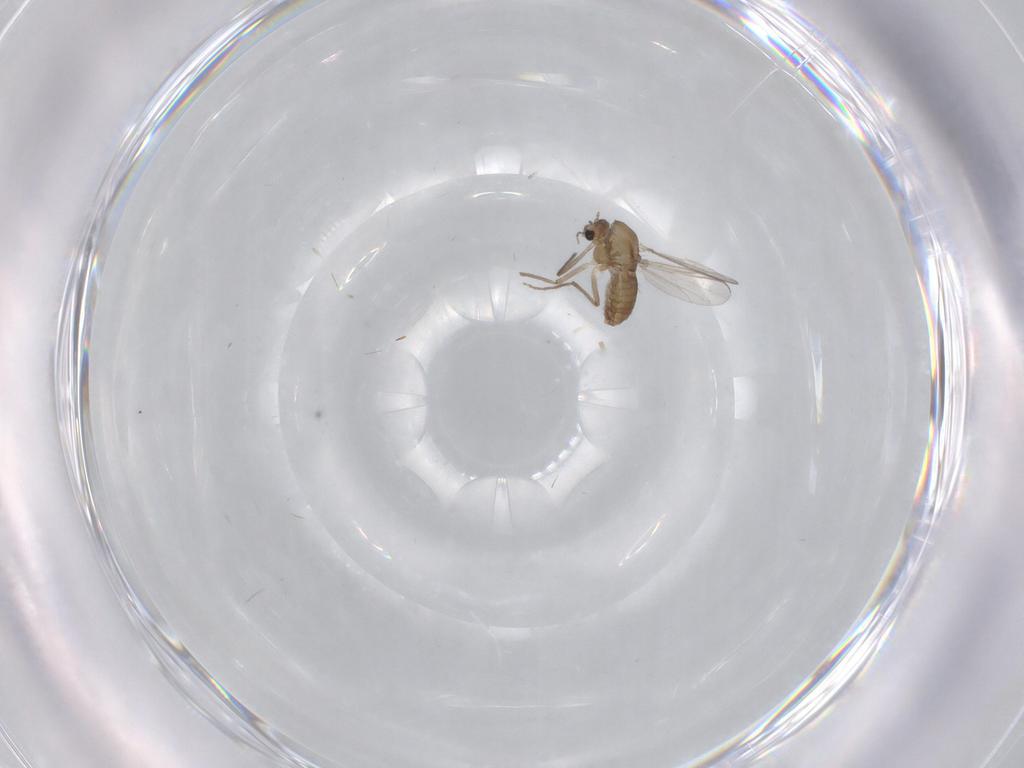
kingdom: Animalia
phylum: Arthropoda
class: Insecta
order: Diptera
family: Chironomidae
